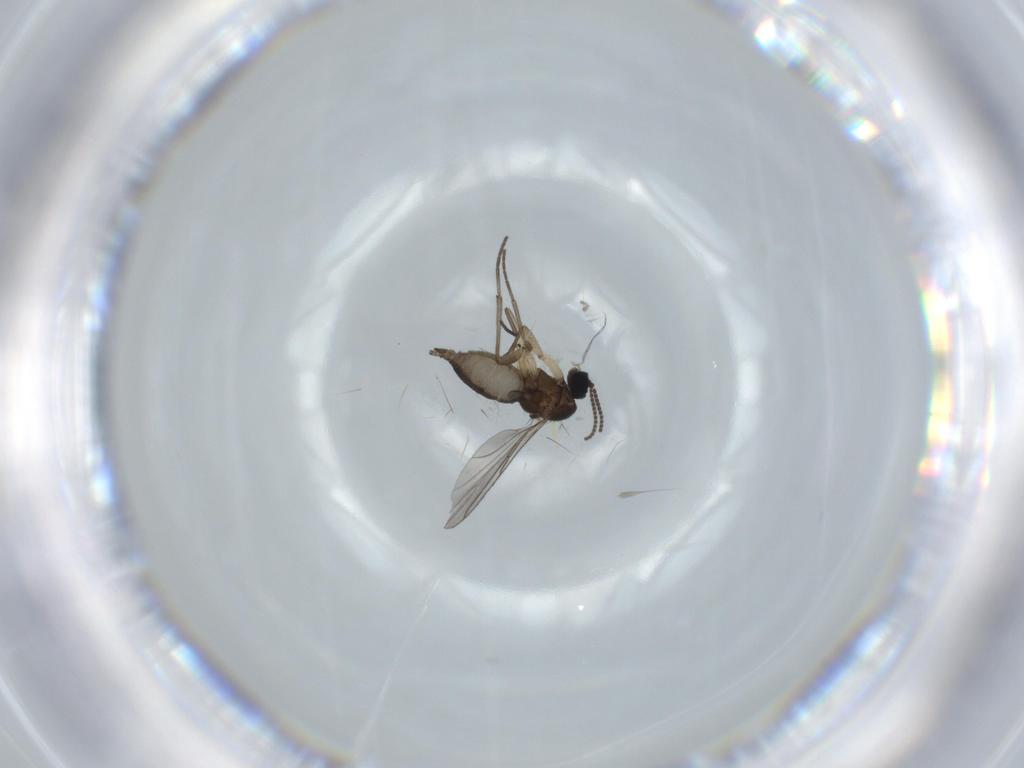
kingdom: Animalia
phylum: Arthropoda
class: Insecta
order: Diptera
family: Sciaridae
